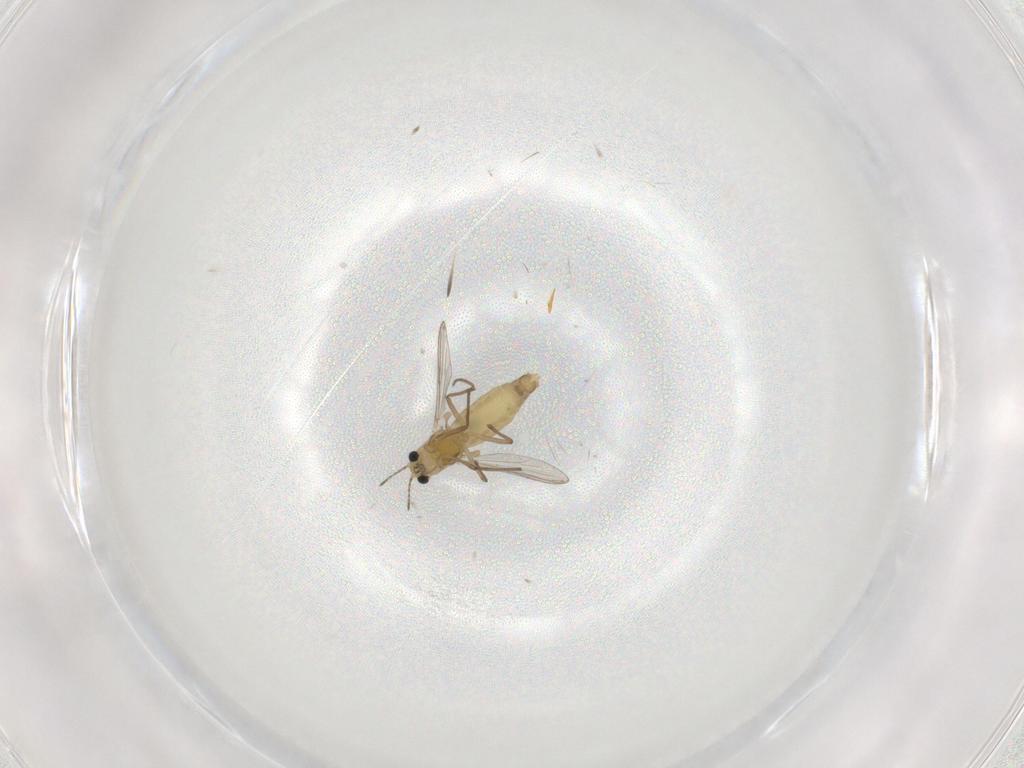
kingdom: Animalia
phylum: Arthropoda
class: Insecta
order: Diptera
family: Chironomidae
